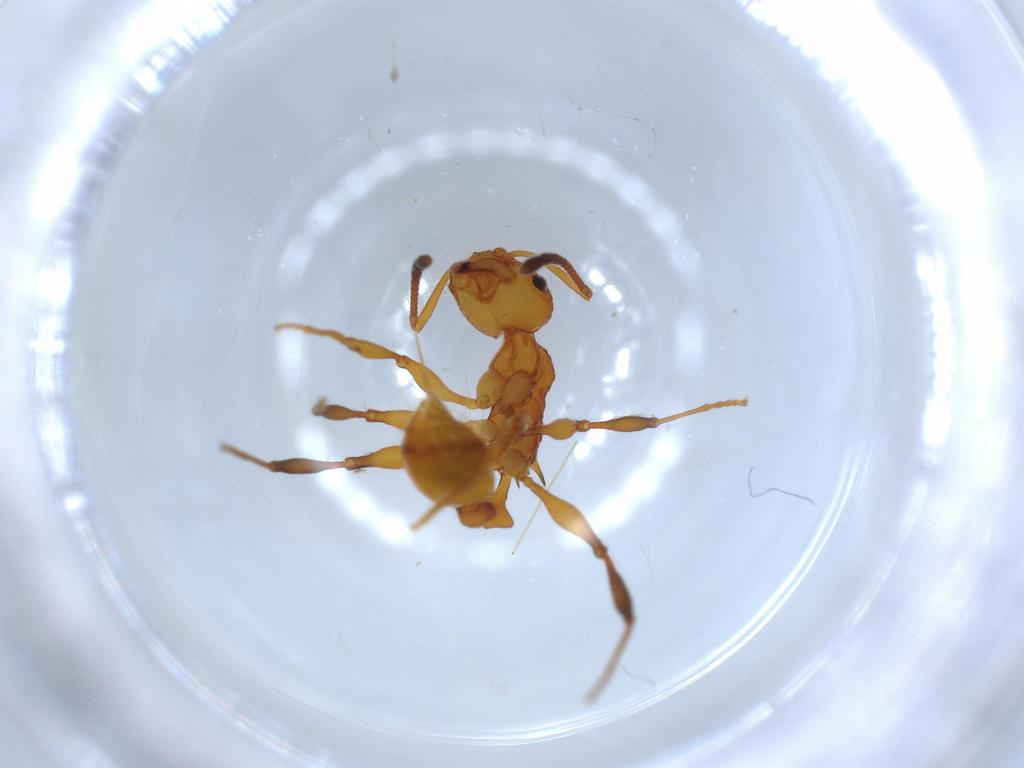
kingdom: Animalia
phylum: Arthropoda
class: Insecta
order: Hymenoptera
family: Formicidae
